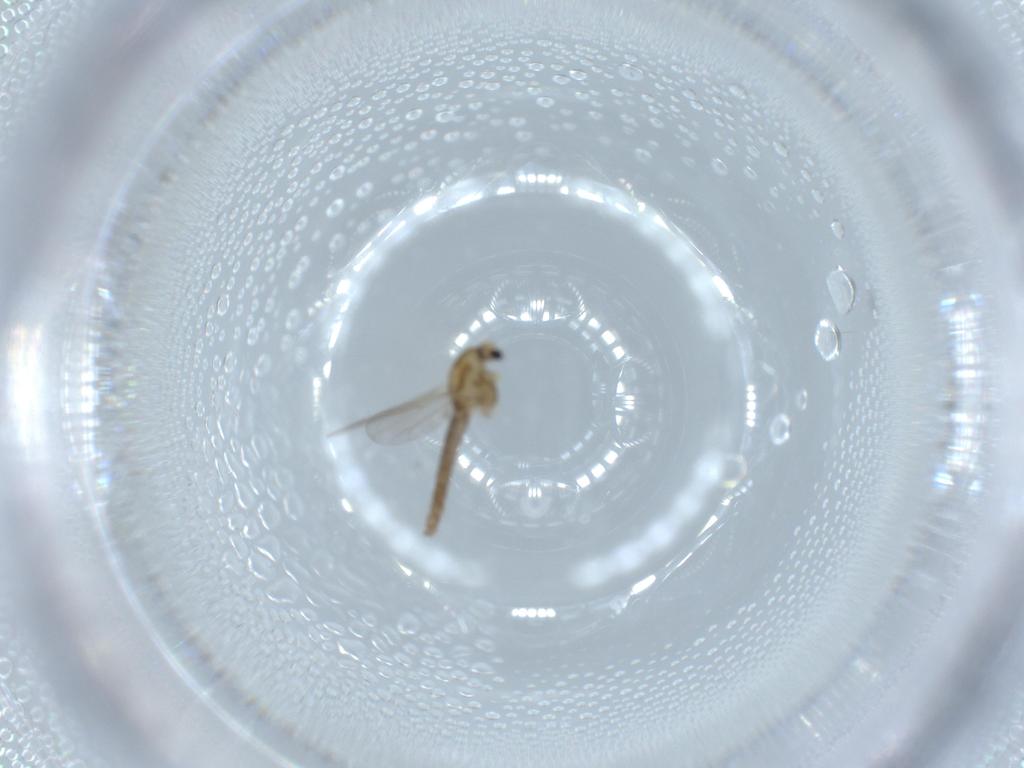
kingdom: Animalia
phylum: Arthropoda
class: Insecta
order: Diptera
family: Chironomidae
